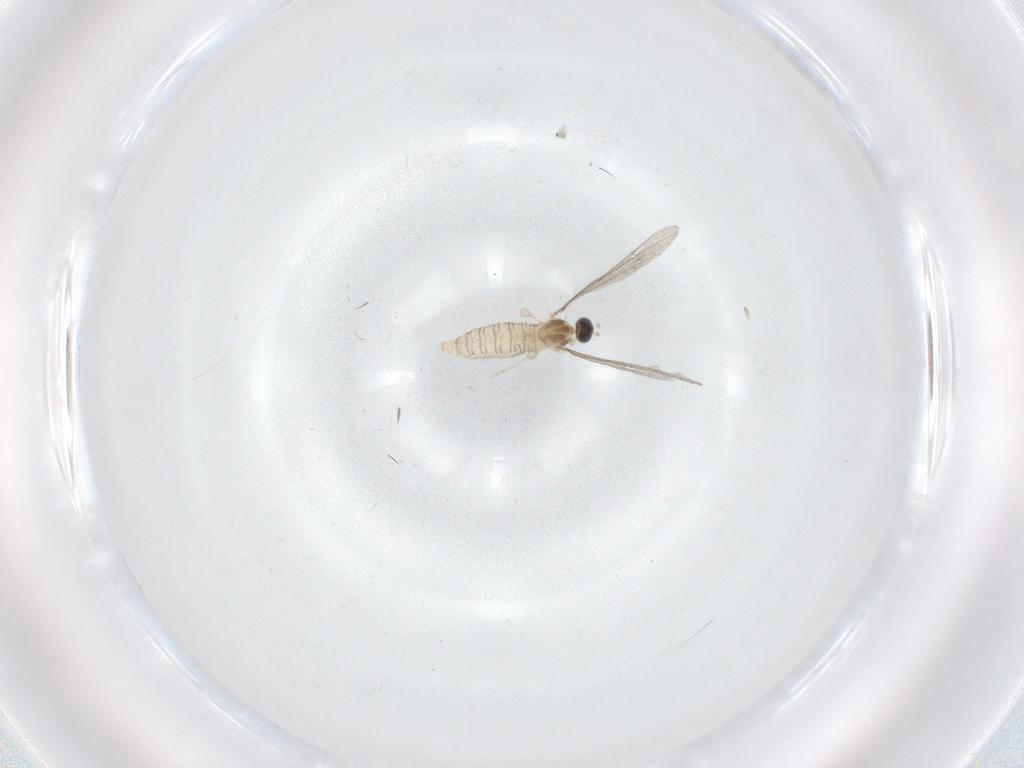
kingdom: Animalia
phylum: Arthropoda
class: Insecta
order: Diptera
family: Cecidomyiidae
